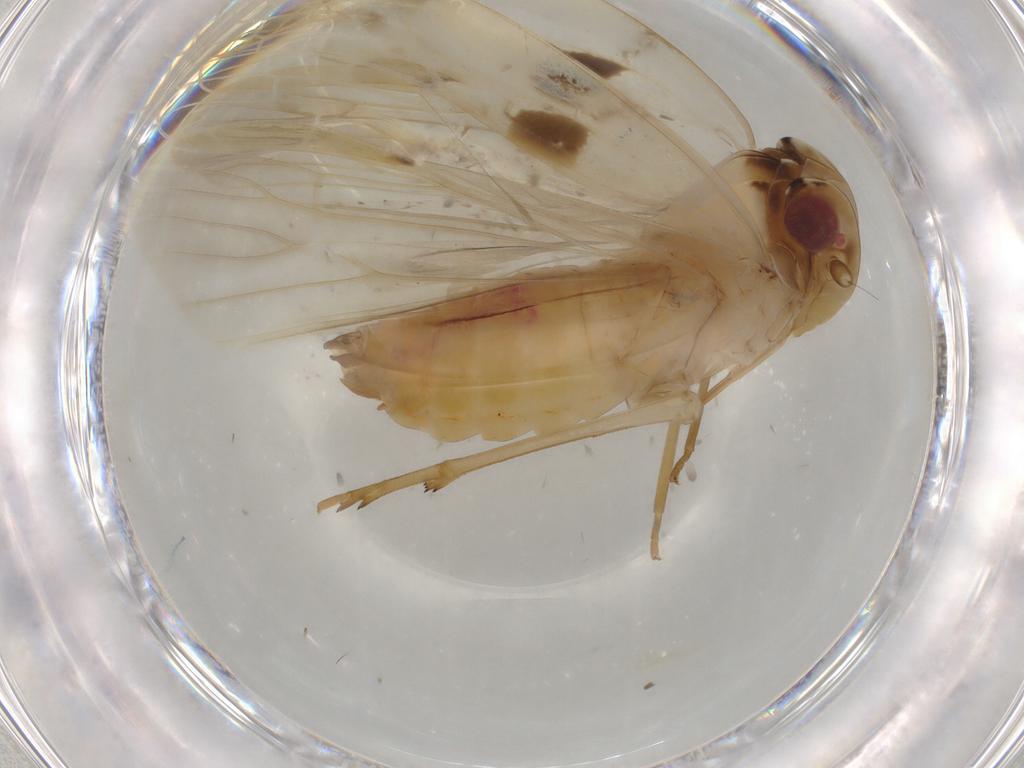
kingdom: Animalia
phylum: Arthropoda
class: Insecta
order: Hemiptera
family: Achilidae
